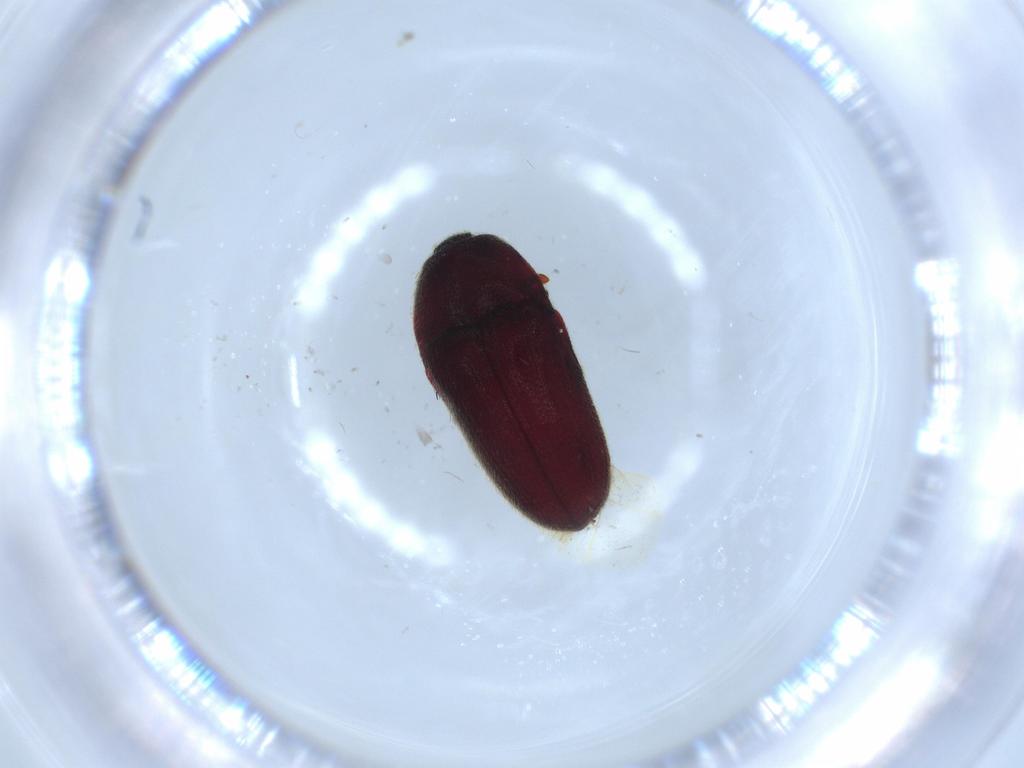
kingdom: Animalia
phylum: Arthropoda
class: Insecta
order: Coleoptera
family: Throscidae
